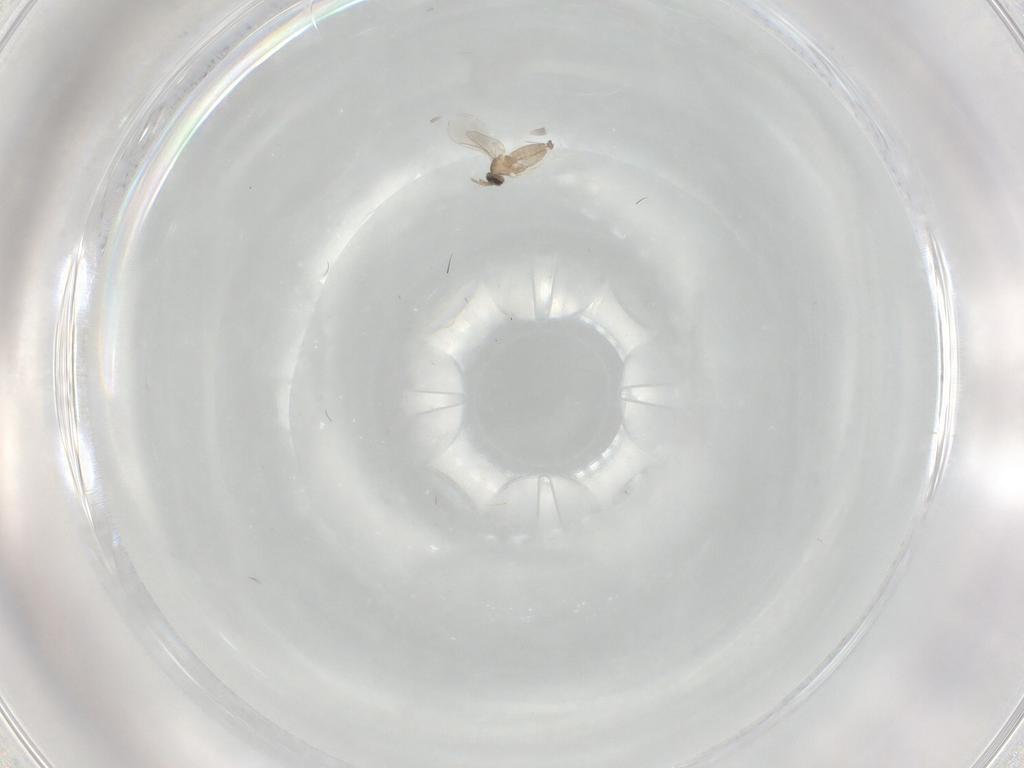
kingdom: Animalia
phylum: Arthropoda
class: Insecta
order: Diptera
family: Cecidomyiidae
